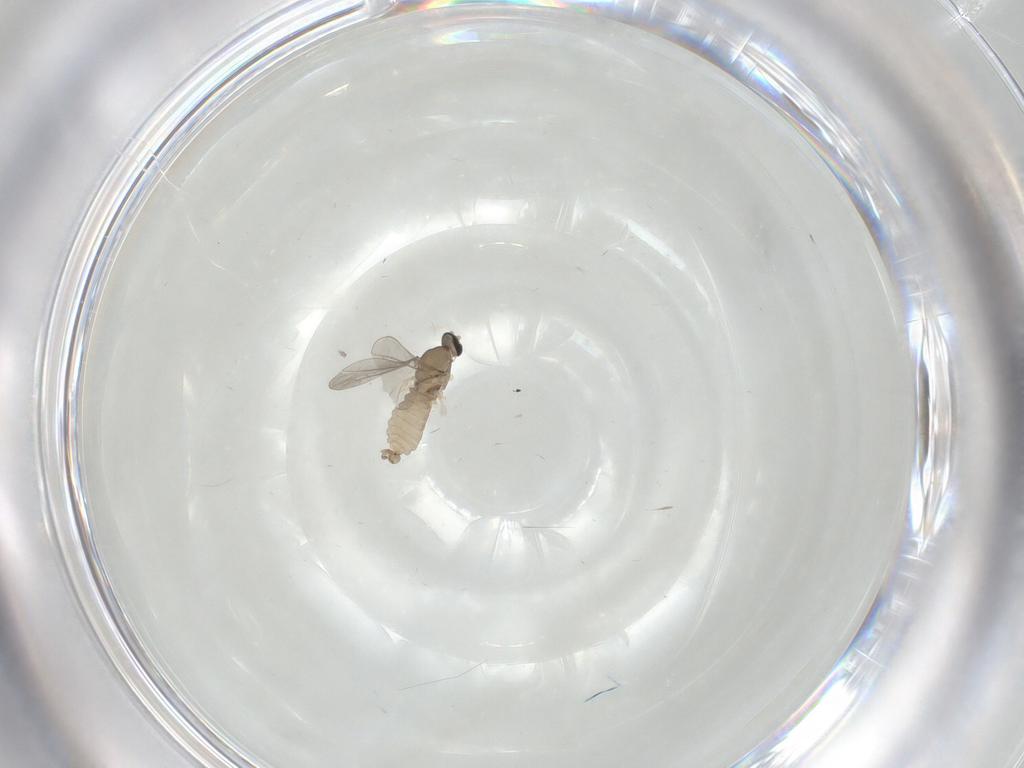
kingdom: Animalia
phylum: Arthropoda
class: Insecta
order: Diptera
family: Cecidomyiidae
